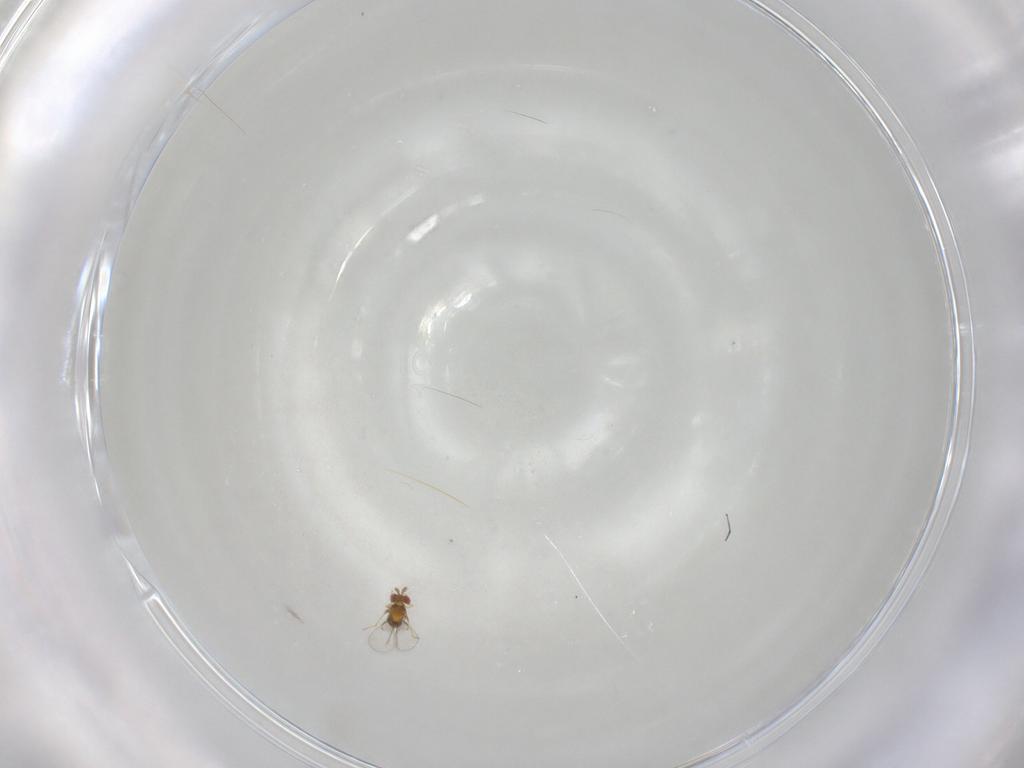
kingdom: Animalia
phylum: Arthropoda
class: Insecta
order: Hymenoptera
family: Trichogrammatidae
